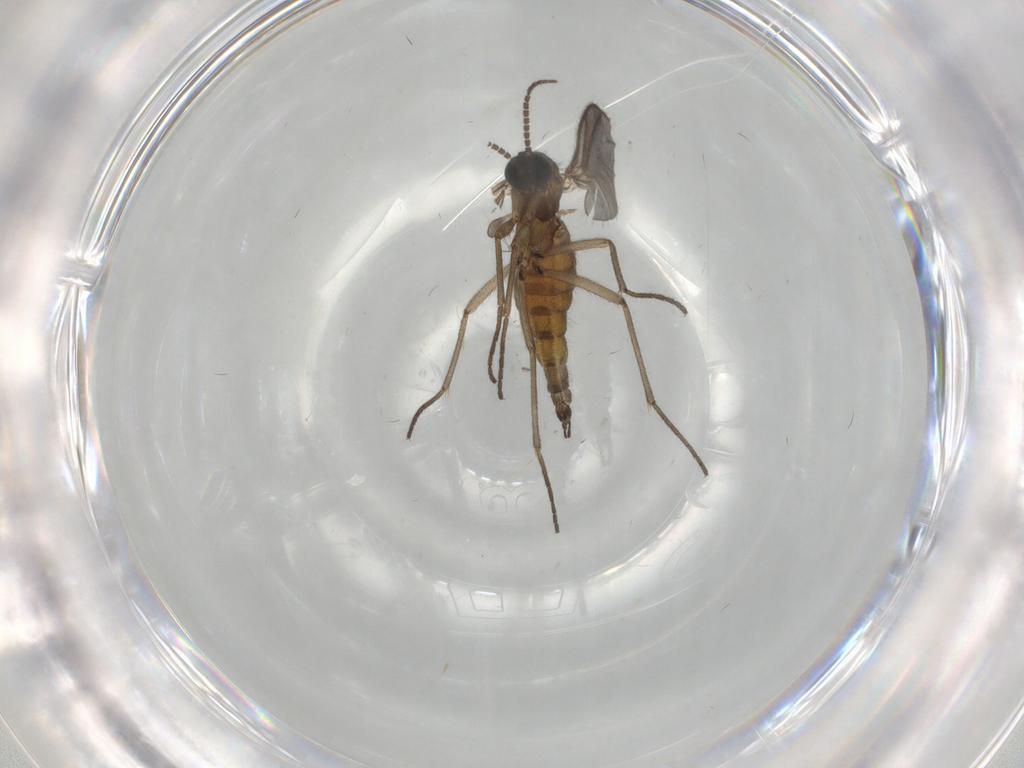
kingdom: Animalia
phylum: Arthropoda
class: Insecta
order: Diptera
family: Sciaridae
